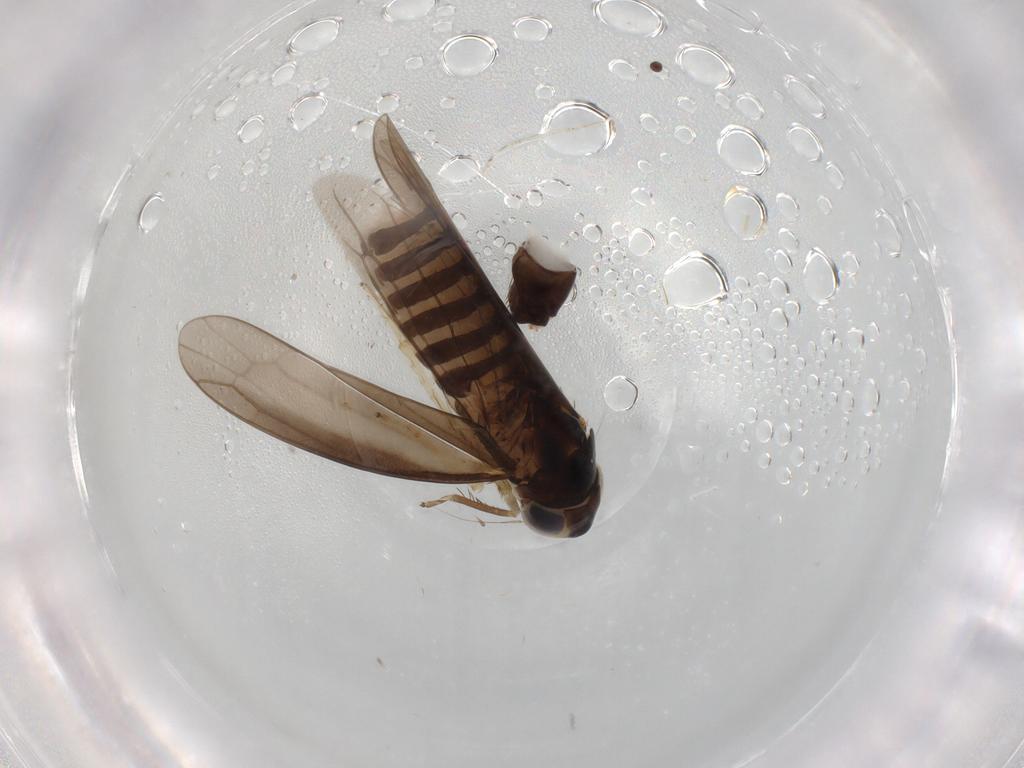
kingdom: Animalia
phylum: Arthropoda
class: Insecta
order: Hemiptera
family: Cicadellidae
